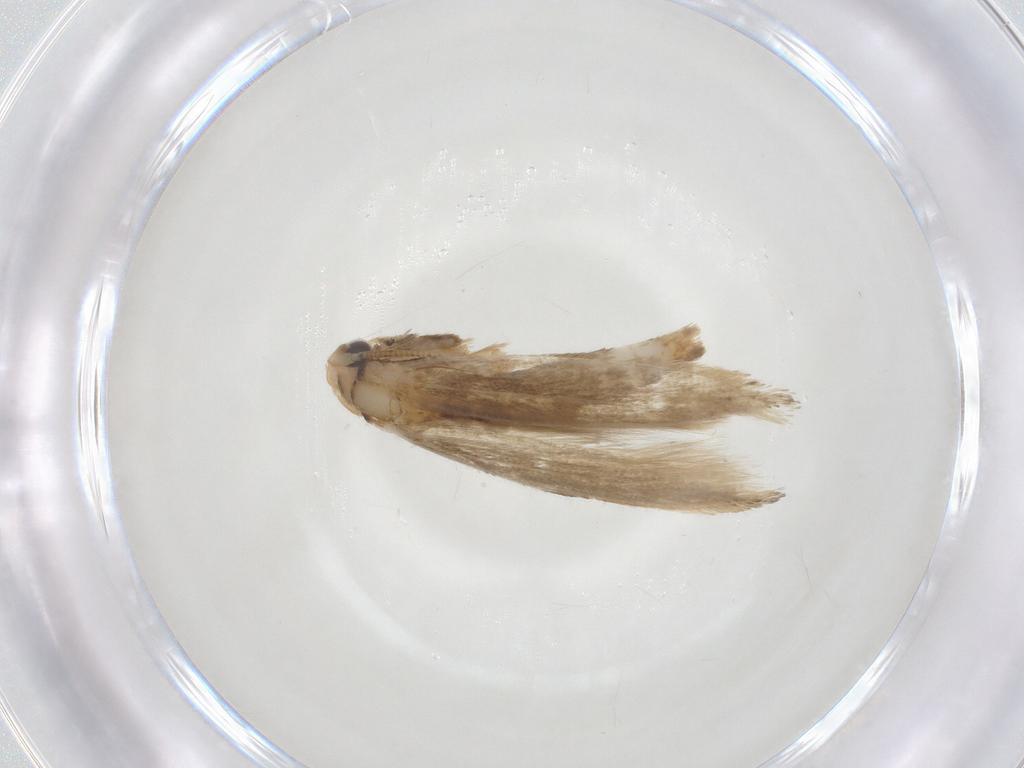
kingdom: Animalia
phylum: Arthropoda
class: Insecta
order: Lepidoptera
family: Tineidae
